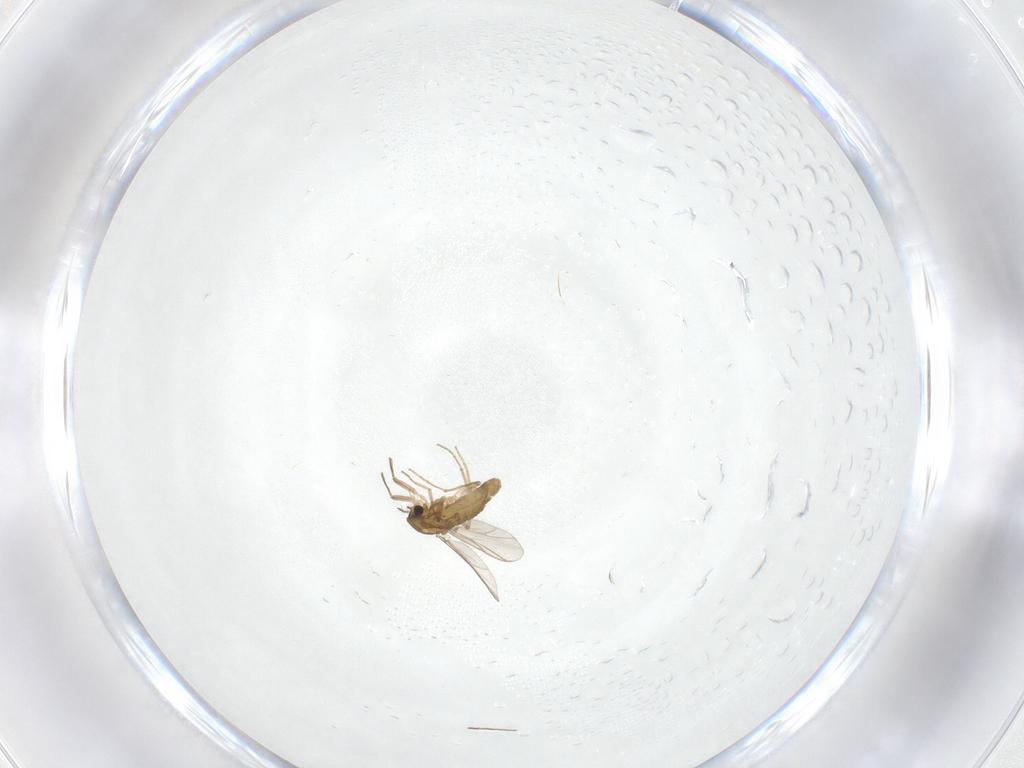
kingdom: Animalia
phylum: Arthropoda
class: Insecta
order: Diptera
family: Chironomidae
